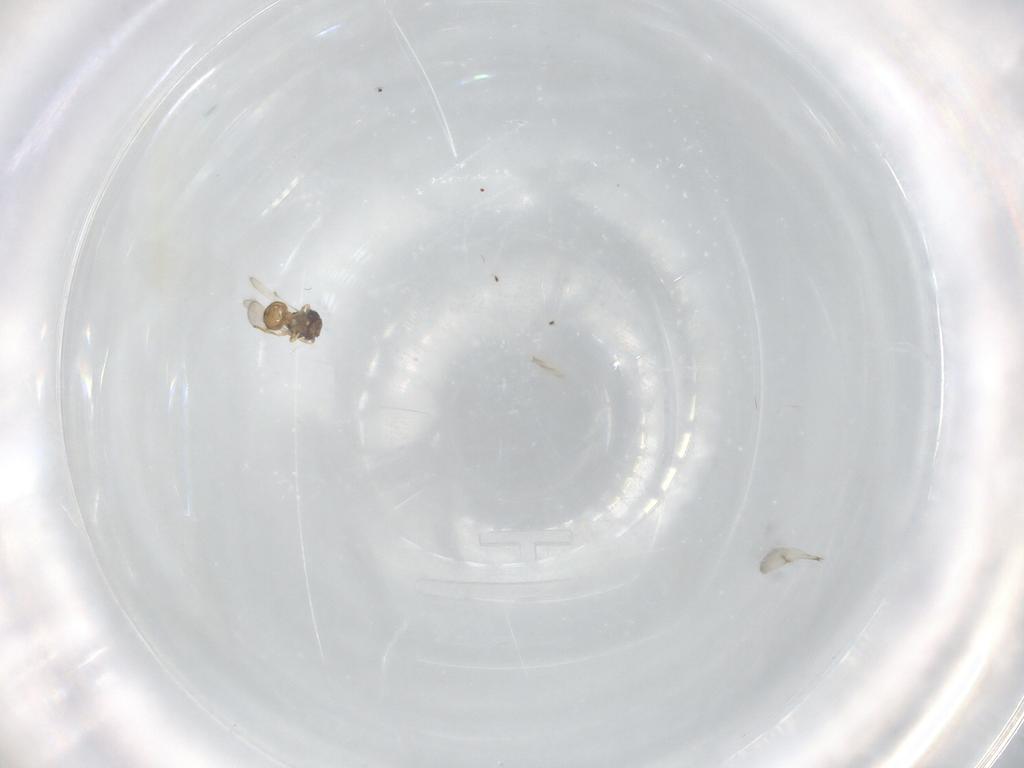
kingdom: Animalia
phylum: Arthropoda
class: Insecta
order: Hymenoptera
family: Scelionidae
